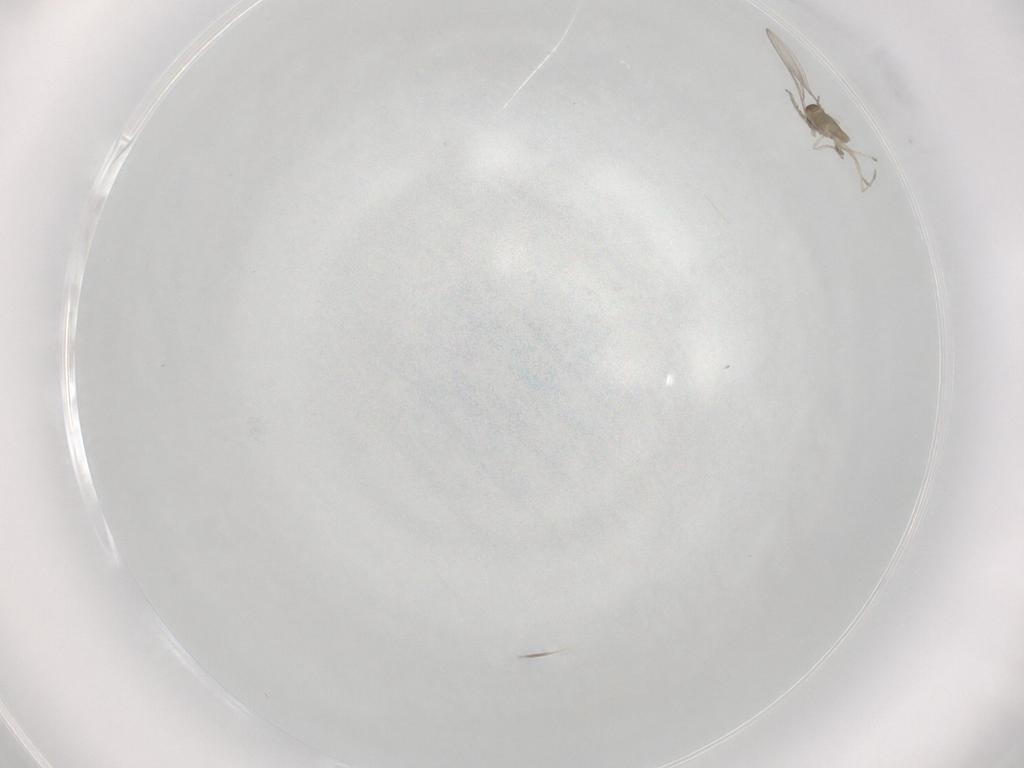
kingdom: Animalia
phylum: Arthropoda
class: Insecta
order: Diptera
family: Cecidomyiidae
